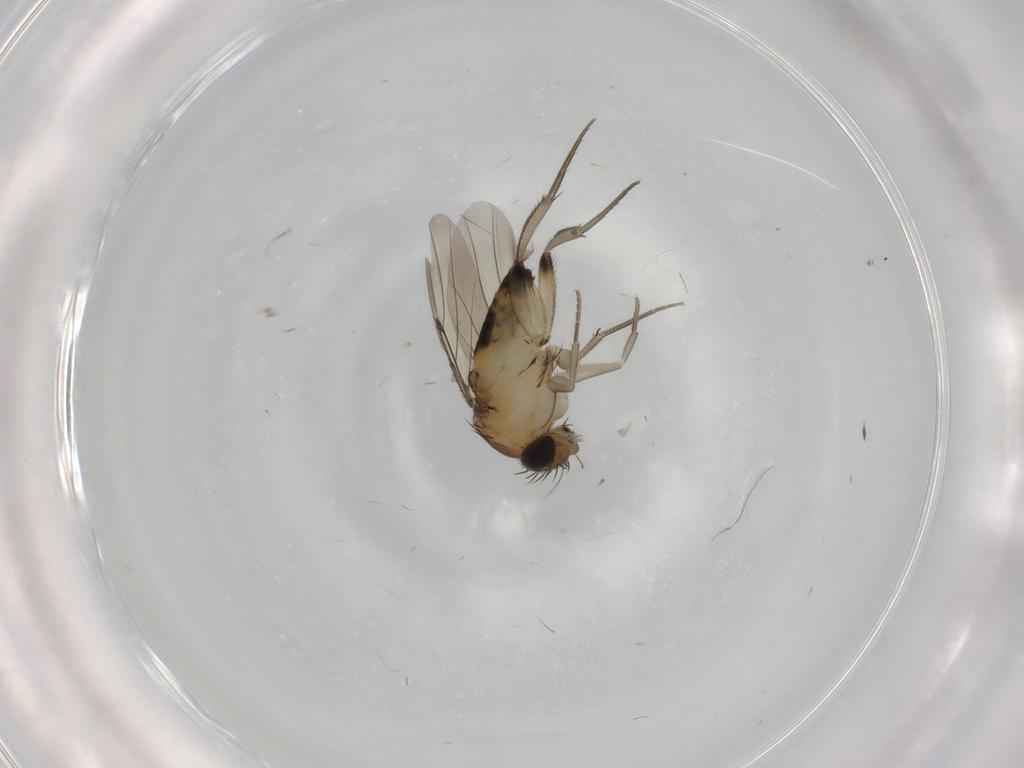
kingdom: Animalia
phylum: Arthropoda
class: Insecta
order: Diptera
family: Phoridae
